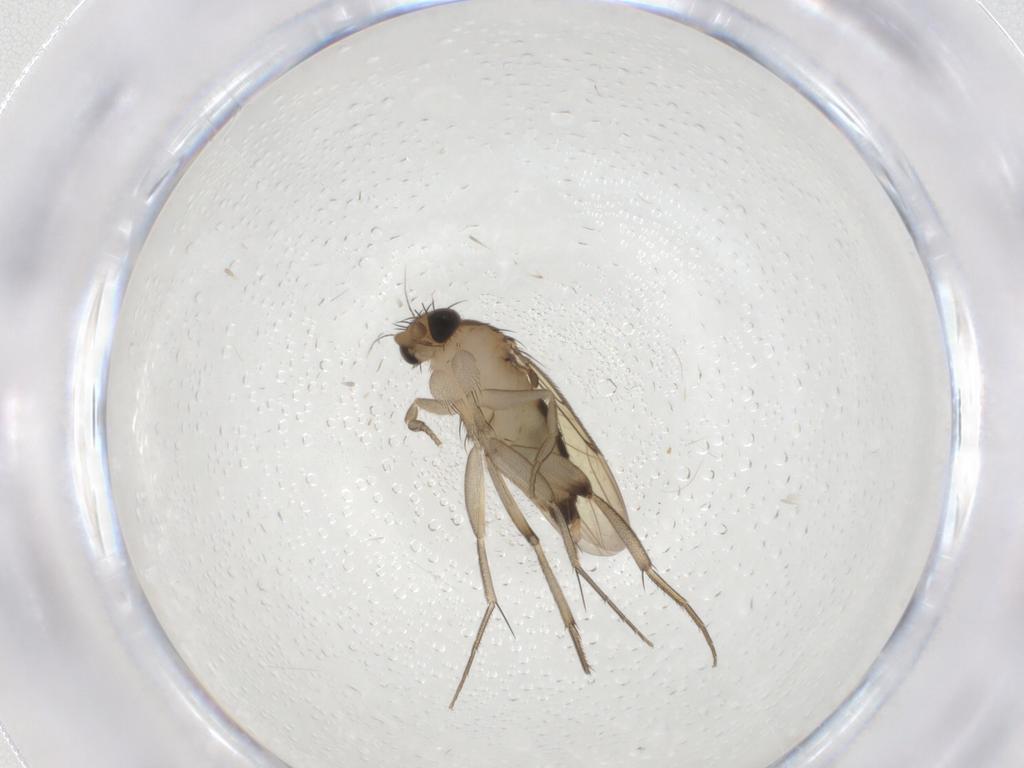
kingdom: Animalia
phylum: Arthropoda
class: Insecta
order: Diptera
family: Phoridae
